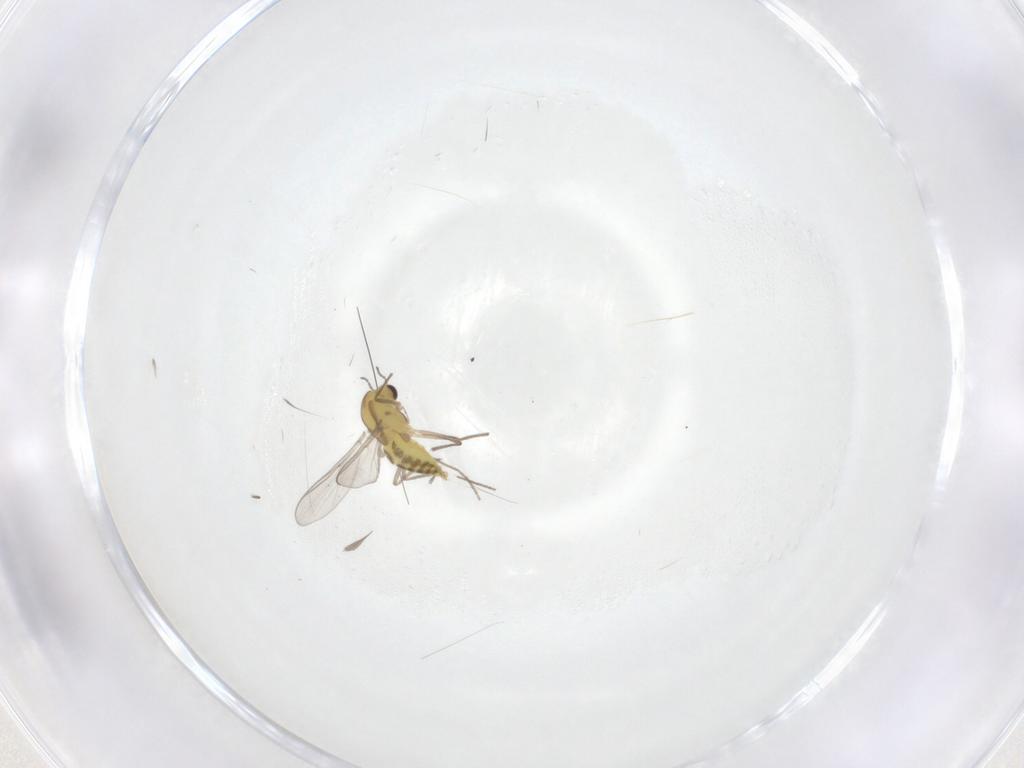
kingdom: Animalia
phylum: Arthropoda
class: Insecta
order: Diptera
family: Chironomidae
